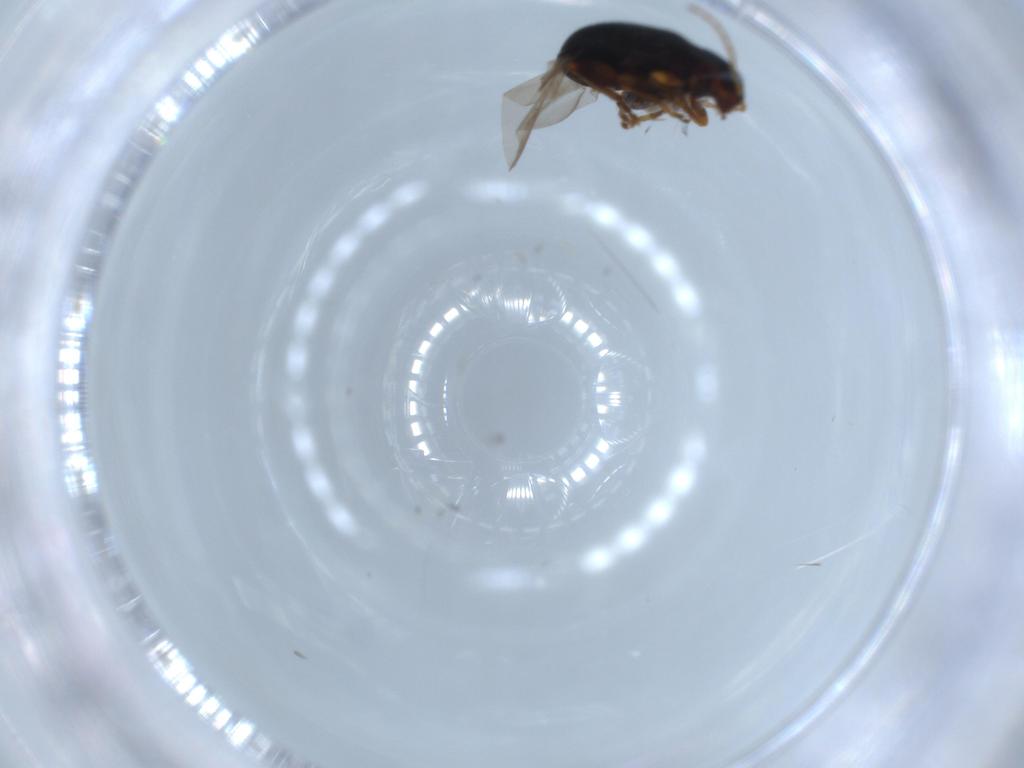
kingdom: Animalia
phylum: Arthropoda
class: Insecta
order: Coleoptera
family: Chrysomelidae
